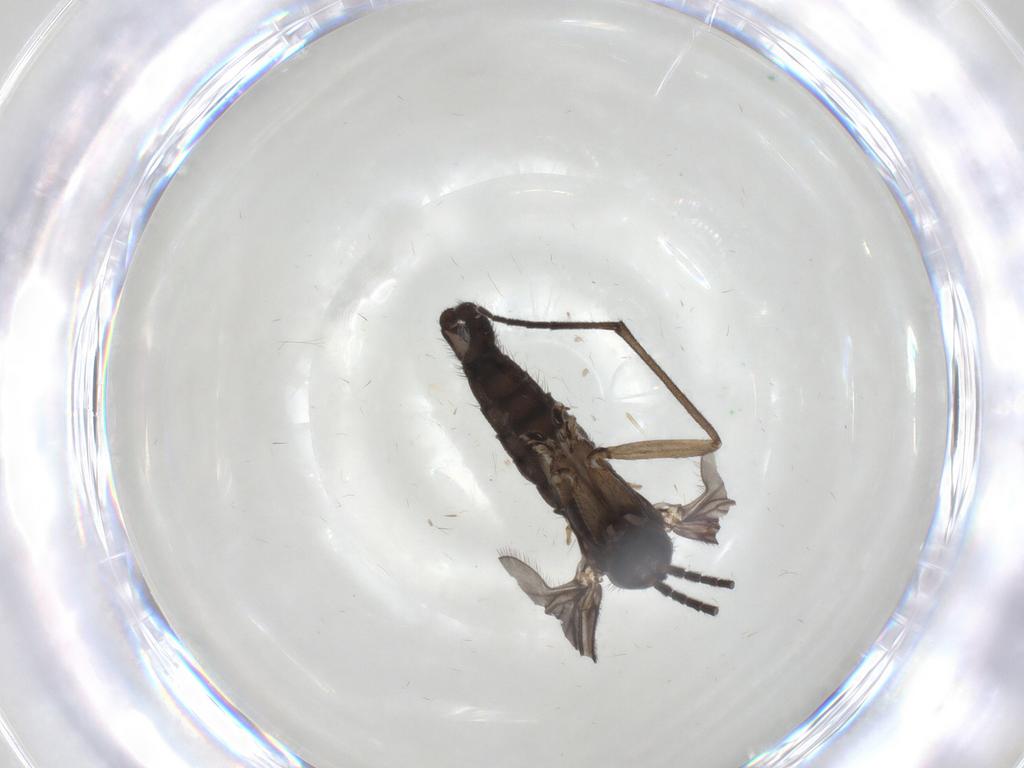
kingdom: Animalia
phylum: Arthropoda
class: Insecta
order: Diptera
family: Sciaridae
